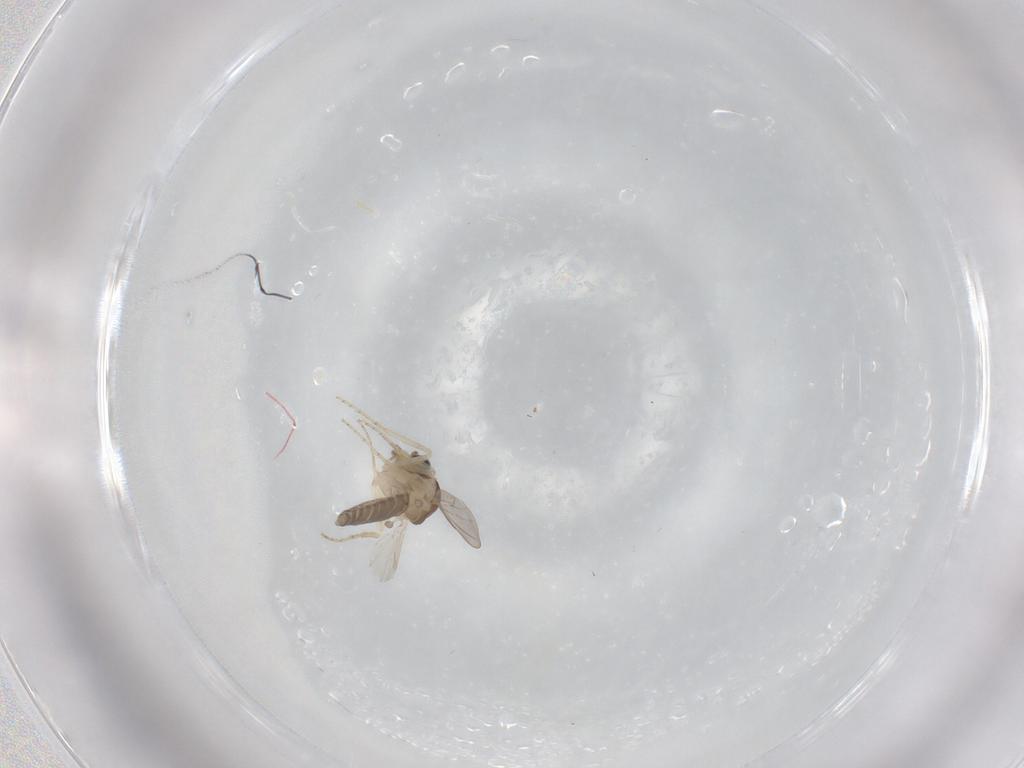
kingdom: Animalia
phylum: Arthropoda
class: Insecta
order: Diptera
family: Ceratopogonidae
